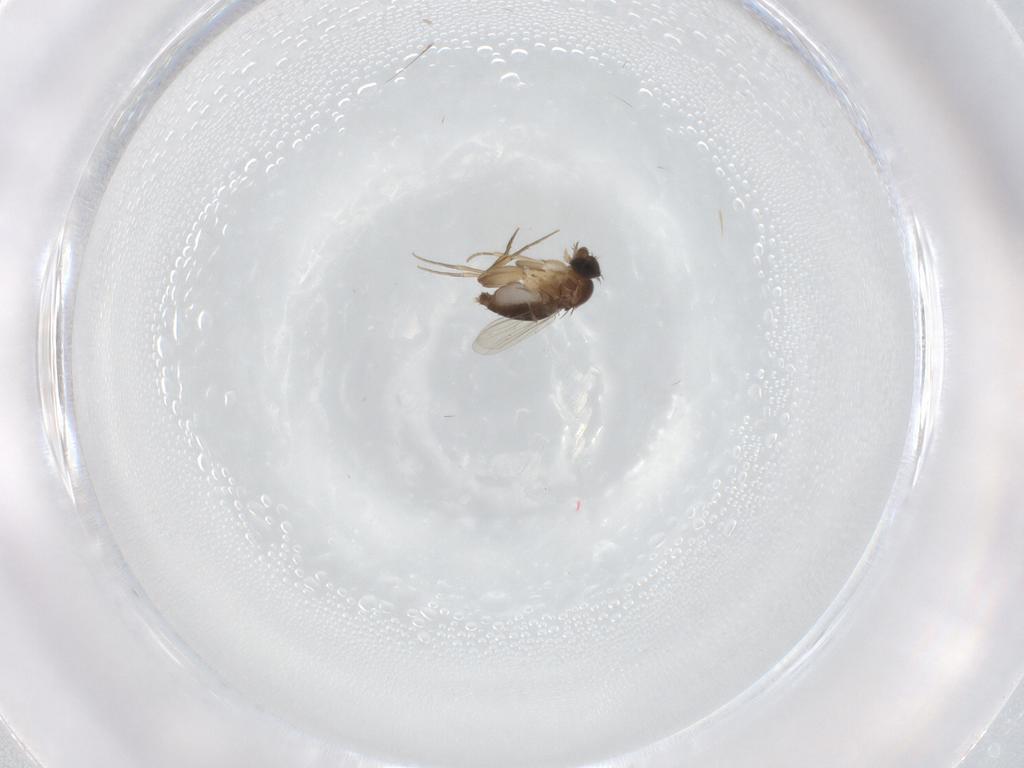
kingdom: Animalia
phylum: Arthropoda
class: Insecta
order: Diptera
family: Phoridae
